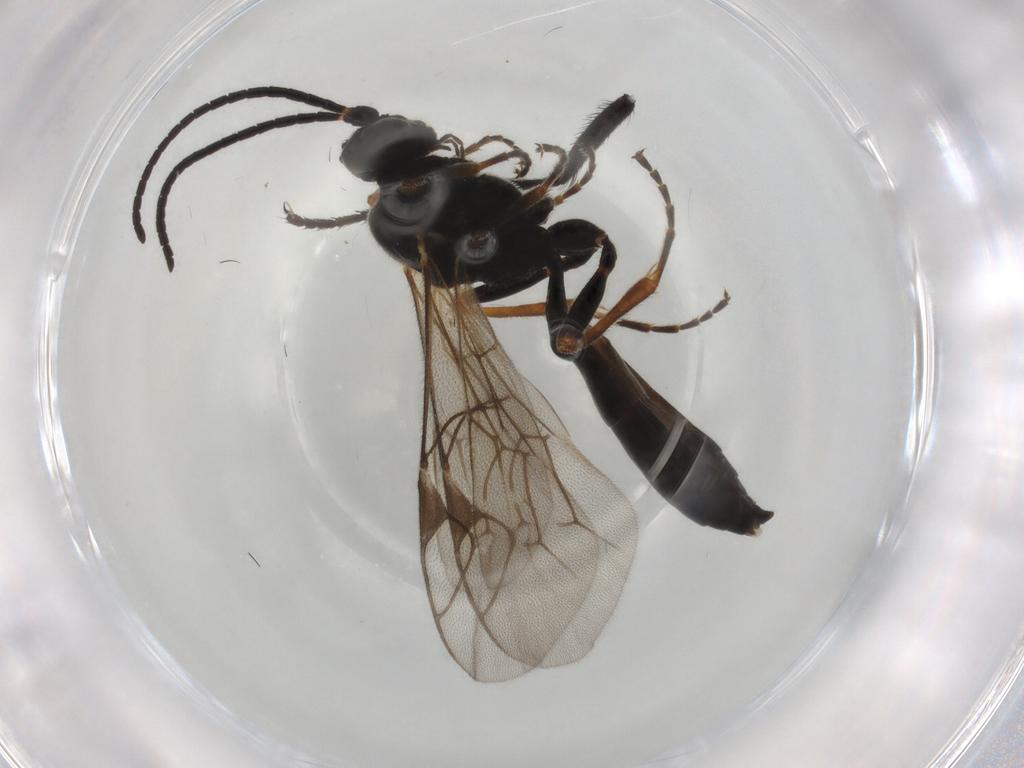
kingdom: Animalia
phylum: Arthropoda
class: Insecta
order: Hymenoptera
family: Ichneumonidae
